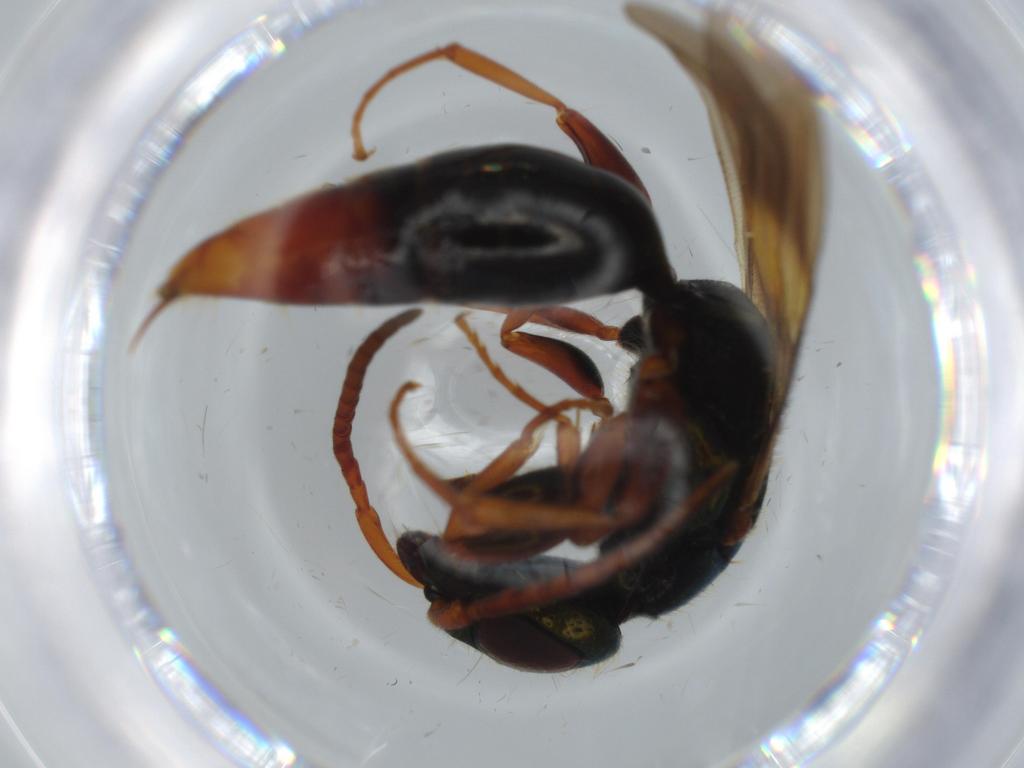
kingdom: Animalia
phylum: Arthropoda
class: Insecta
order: Hymenoptera
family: Bethylidae
